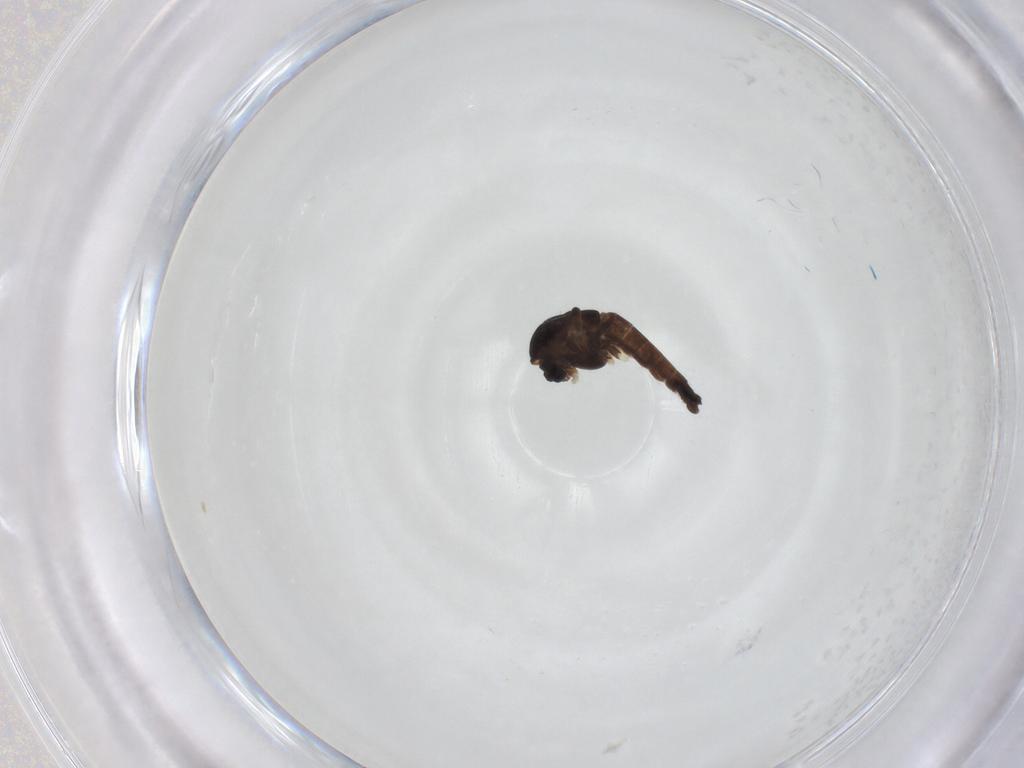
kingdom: Animalia
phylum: Arthropoda
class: Insecta
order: Diptera
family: Chironomidae
